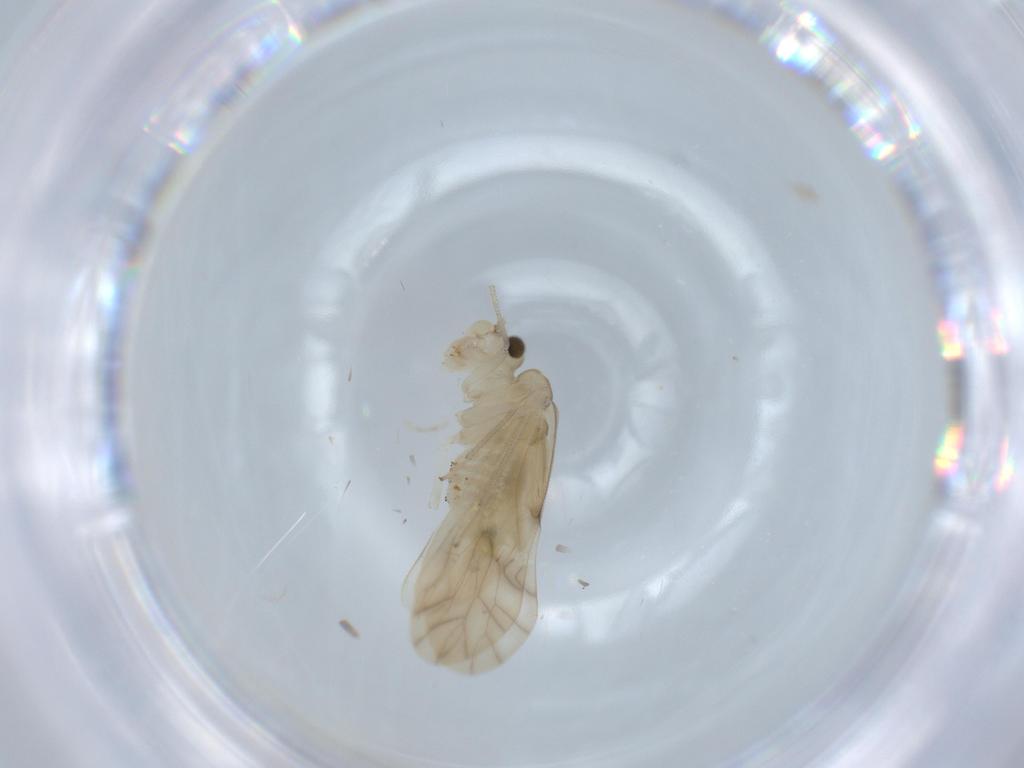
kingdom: Animalia
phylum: Arthropoda
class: Insecta
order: Psocodea
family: Caeciliusidae
